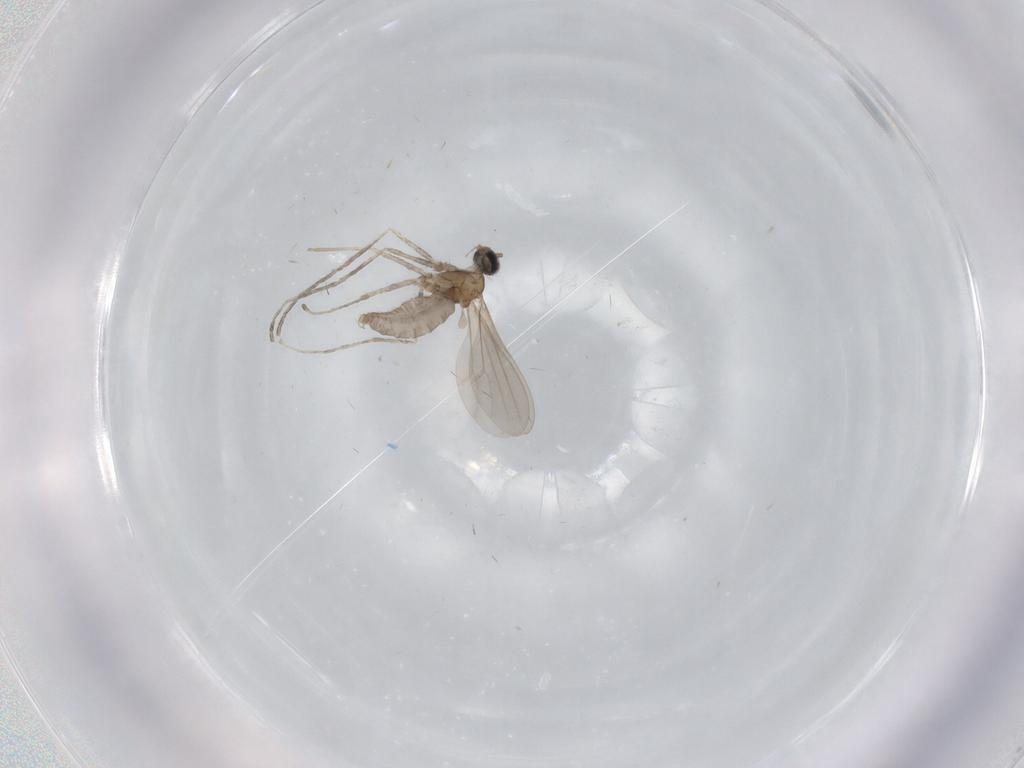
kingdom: Animalia
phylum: Arthropoda
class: Insecta
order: Diptera
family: Cecidomyiidae
